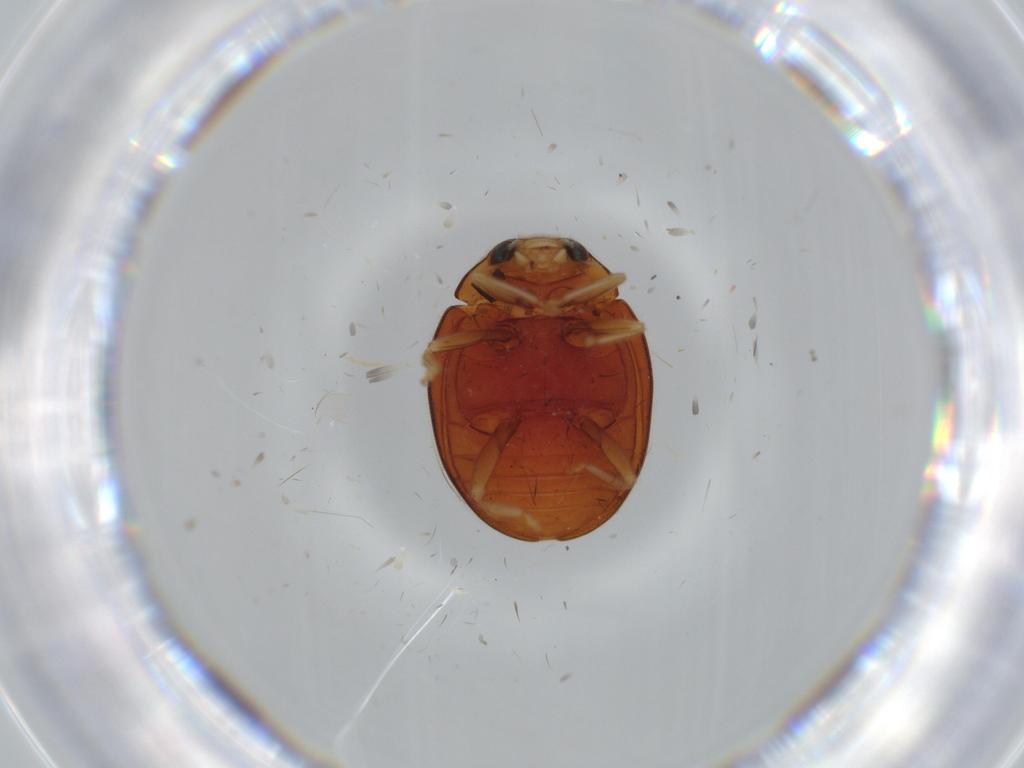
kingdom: Animalia
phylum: Arthropoda
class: Insecta
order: Coleoptera
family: Coccinellidae
